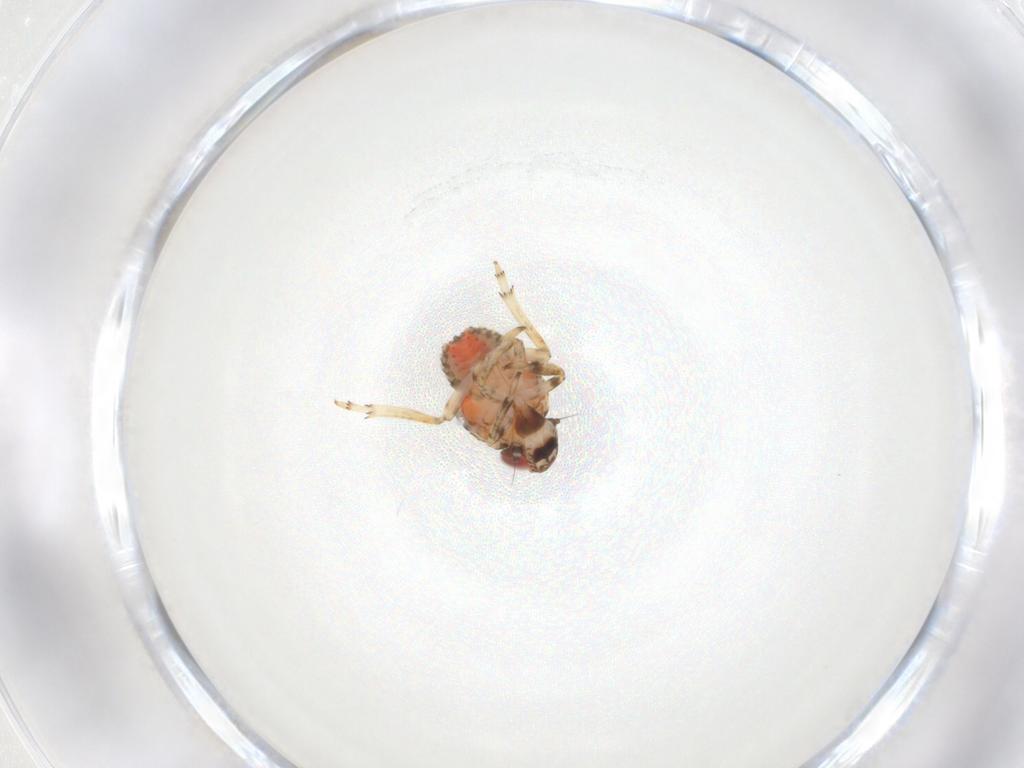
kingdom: Animalia
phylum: Arthropoda
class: Insecta
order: Hemiptera
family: Issidae
